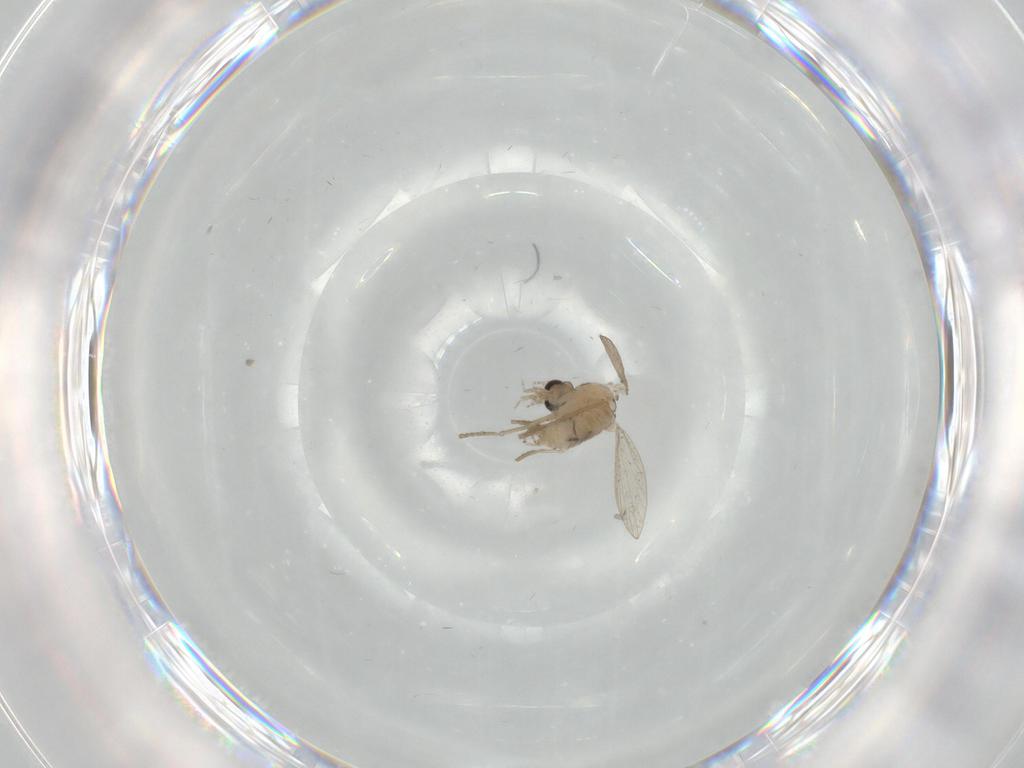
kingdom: Animalia
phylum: Arthropoda
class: Insecta
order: Diptera
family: Psychodidae
